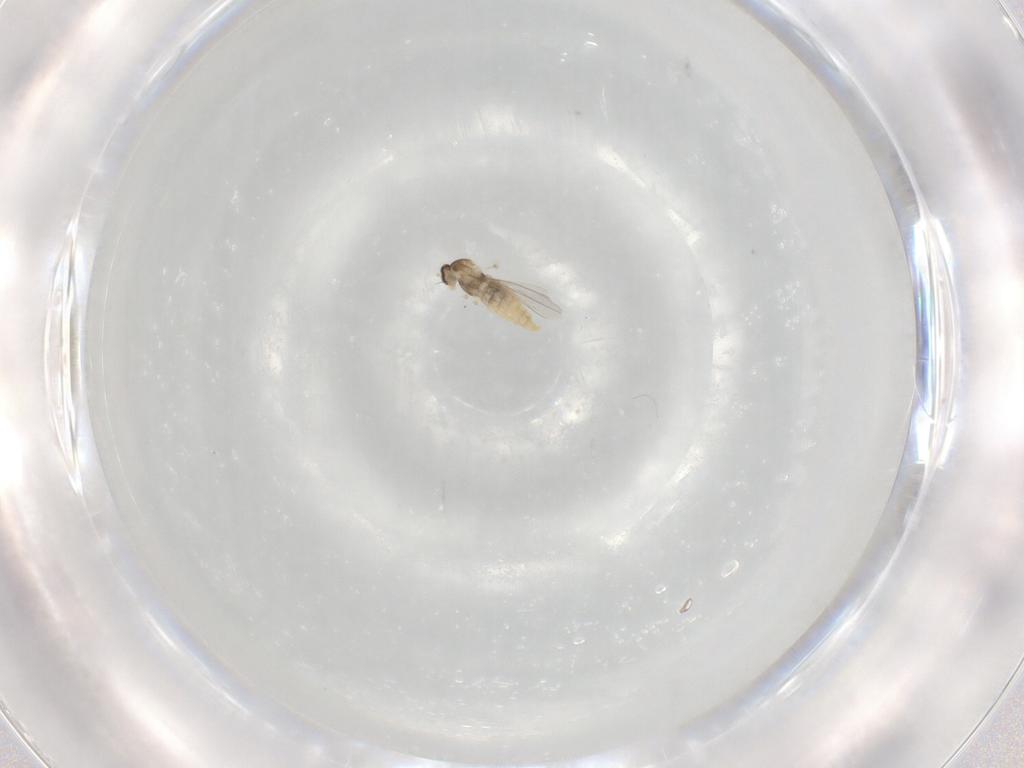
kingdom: Animalia
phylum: Arthropoda
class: Insecta
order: Diptera
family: Cecidomyiidae
